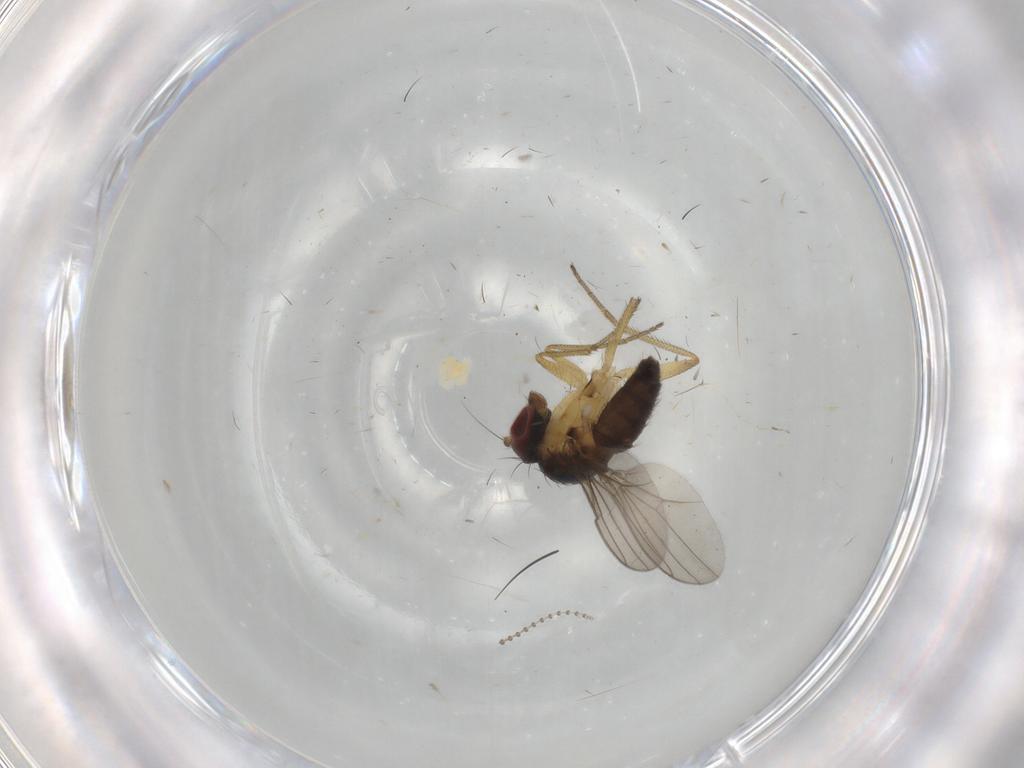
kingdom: Animalia
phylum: Arthropoda
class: Insecta
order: Diptera
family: Dolichopodidae
